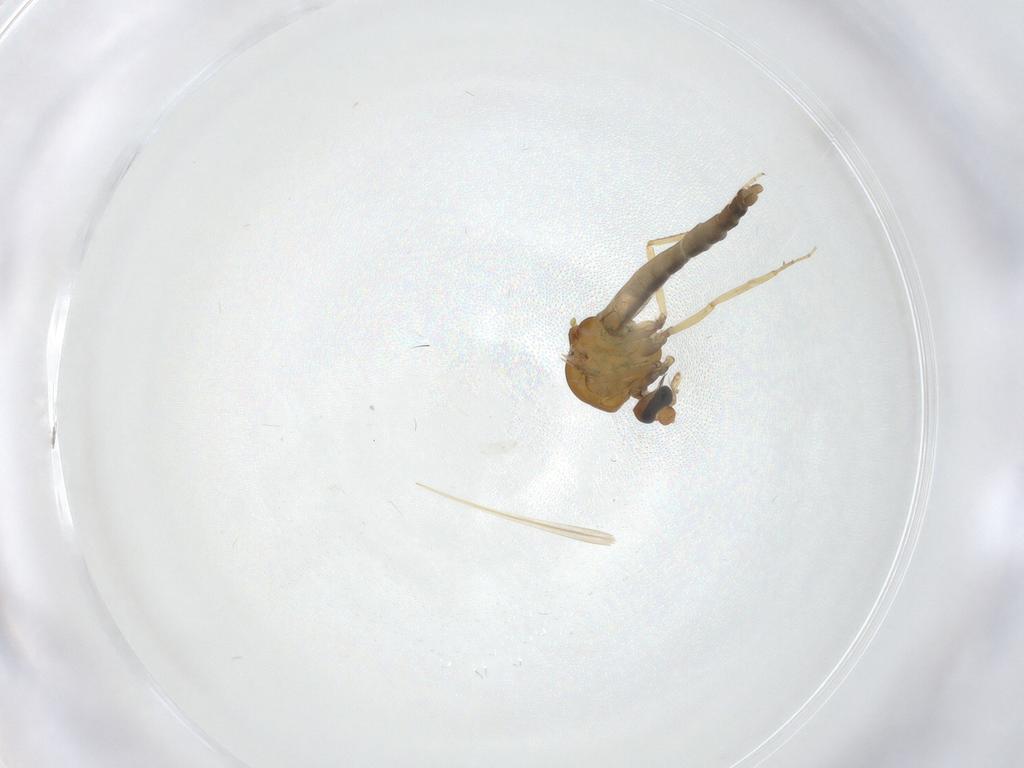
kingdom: Animalia
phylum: Arthropoda
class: Insecta
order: Diptera
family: Ceratopogonidae
